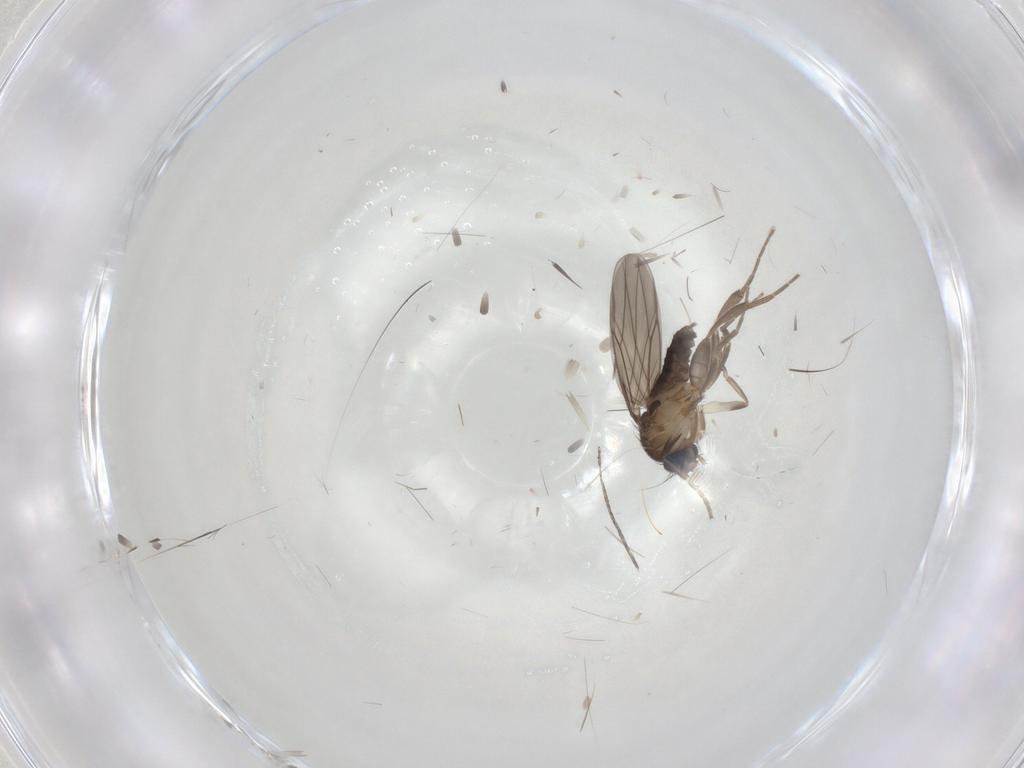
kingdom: Animalia
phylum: Arthropoda
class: Insecta
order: Diptera
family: Cecidomyiidae
